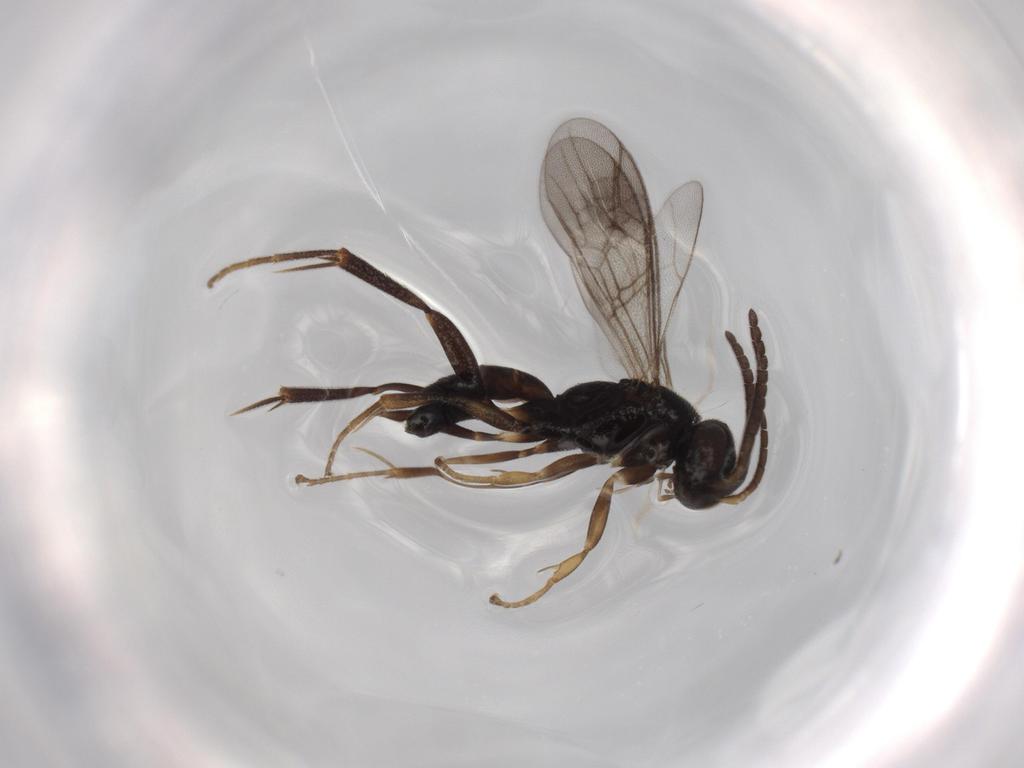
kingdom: Animalia
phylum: Arthropoda
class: Insecta
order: Hymenoptera
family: Pompilidae
